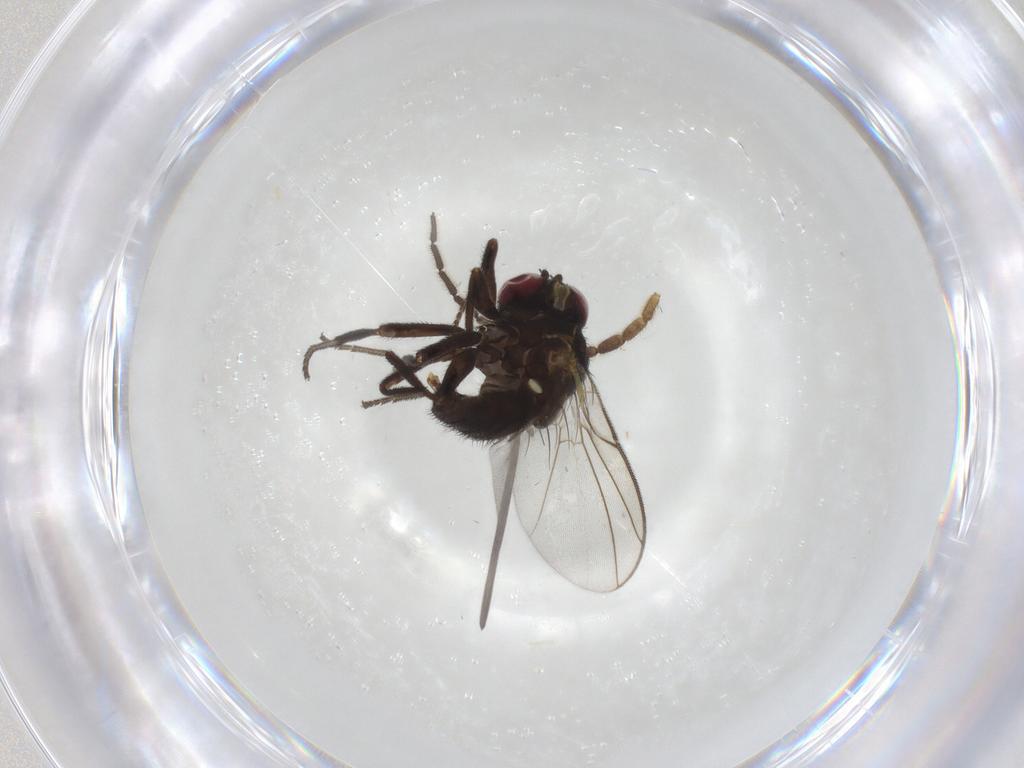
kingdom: Animalia
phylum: Arthropoda
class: Insecta
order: Diptera
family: Agromyzidae
